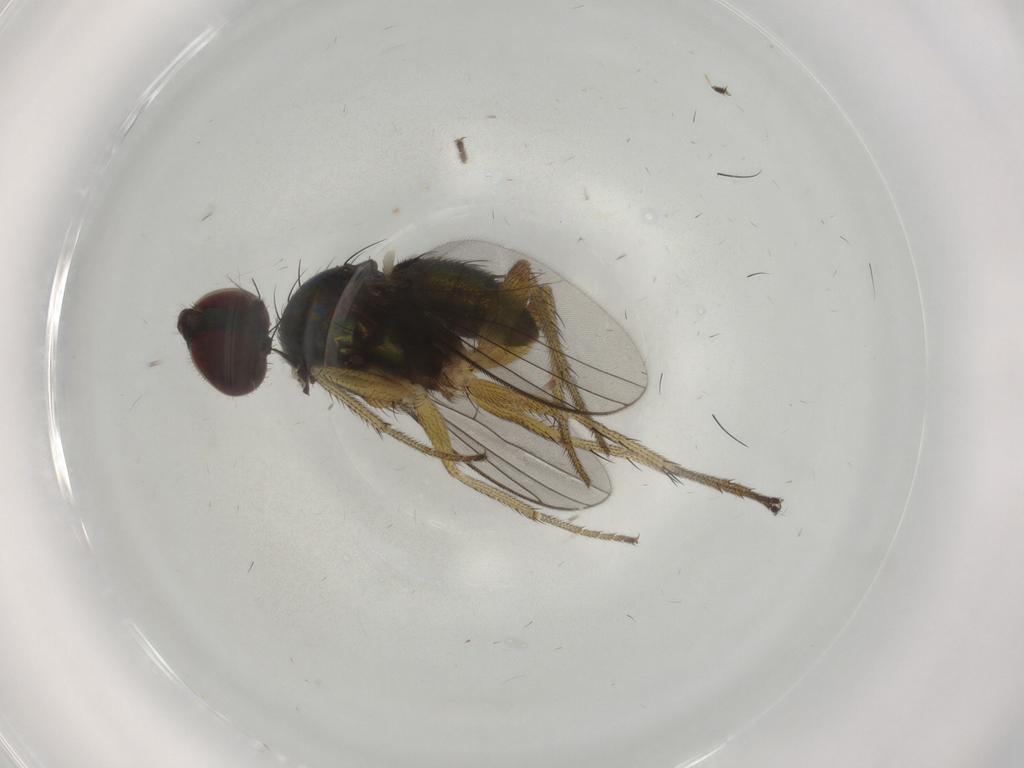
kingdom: Animalia
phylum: Arthropoda
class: Insecta
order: Diptera
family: Dolichopodidae
